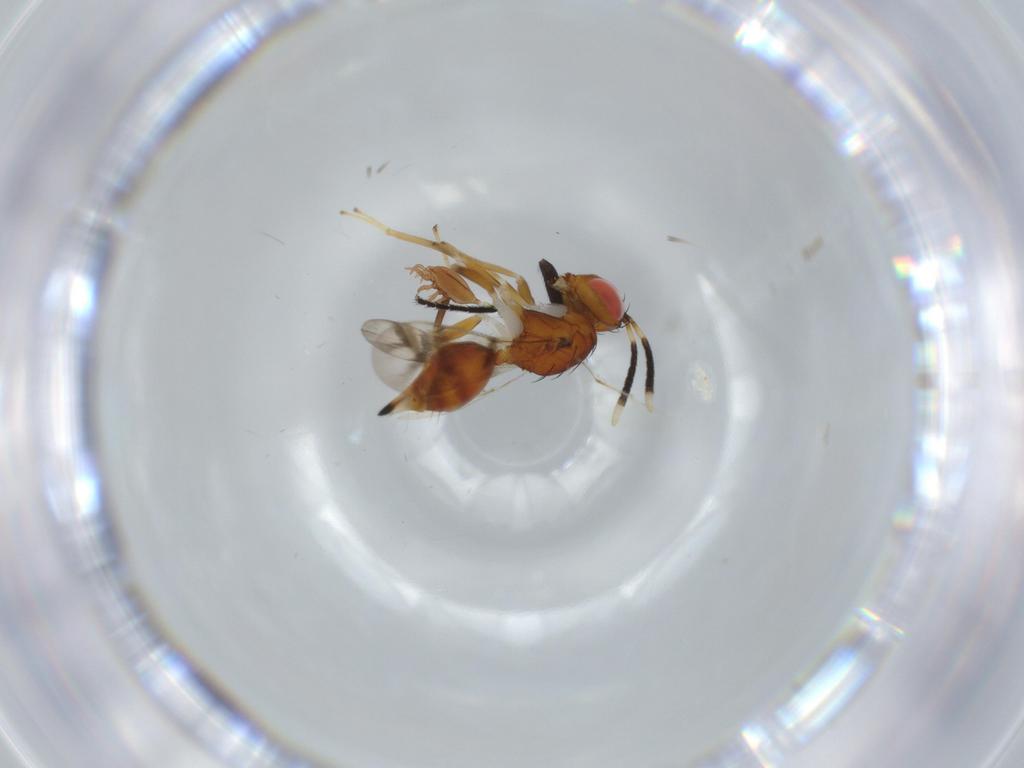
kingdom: Animalia
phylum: Arthropoda
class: Insecta
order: Hymenoptera
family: Diparidae
